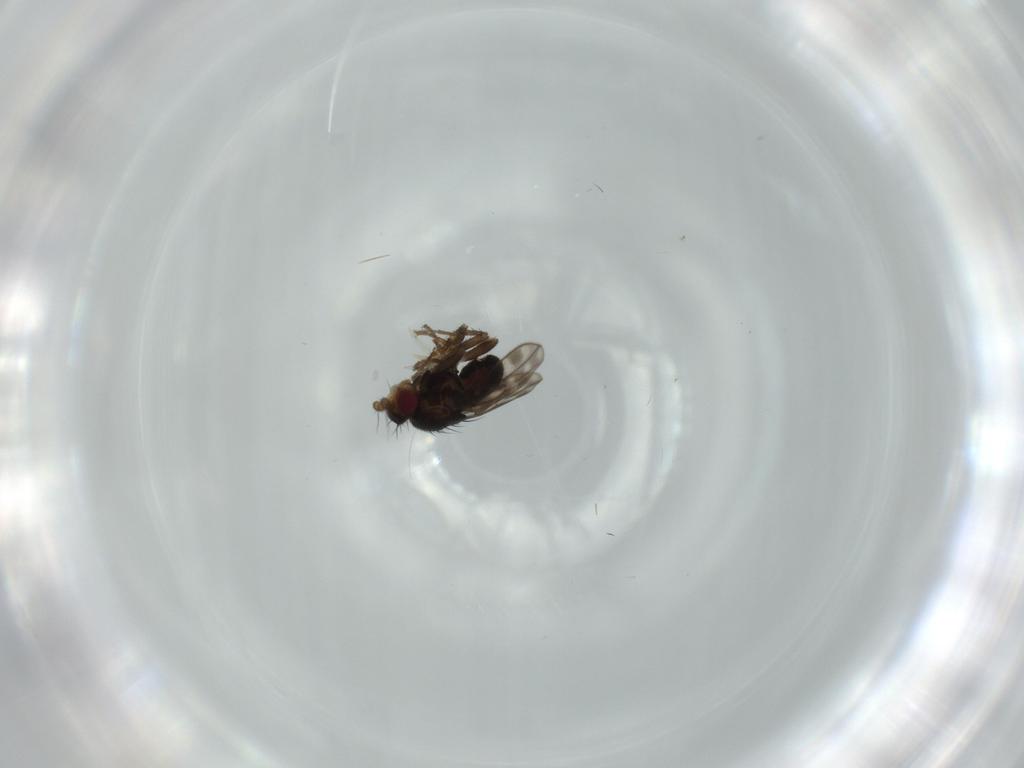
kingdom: Animalia
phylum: Arthropoda
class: Insecta
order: Diptera
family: Sphaeroceridae
